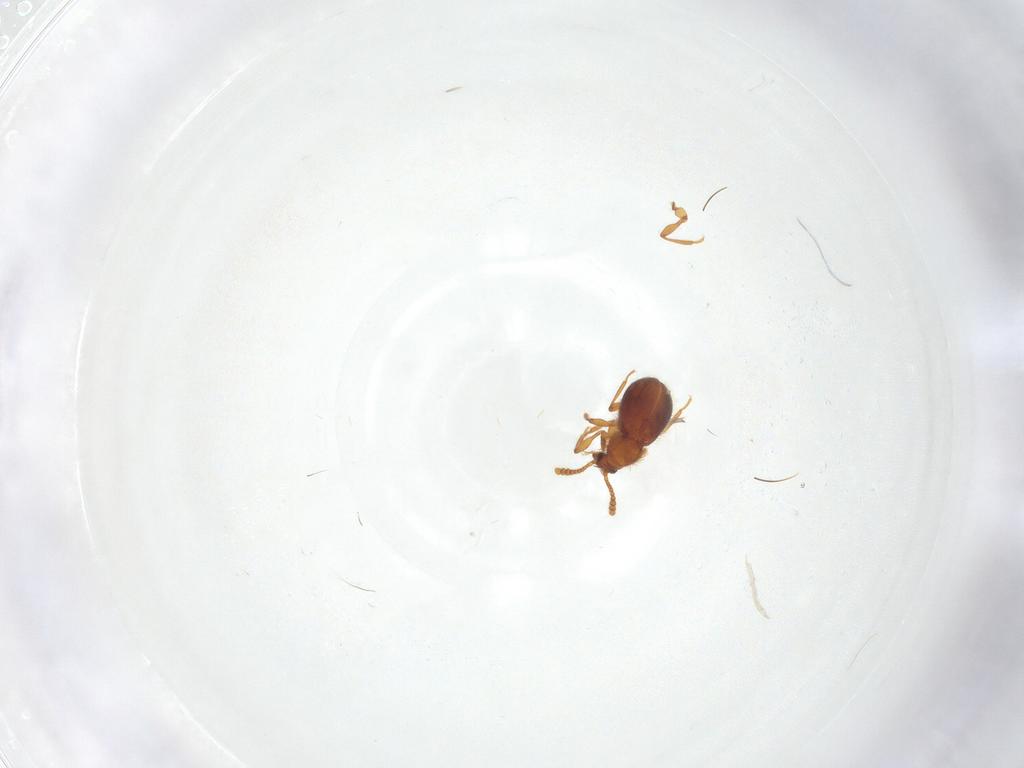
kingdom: Animalia
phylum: Arthropoda
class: Insecta
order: Coleoptera
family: Staphylinidae
